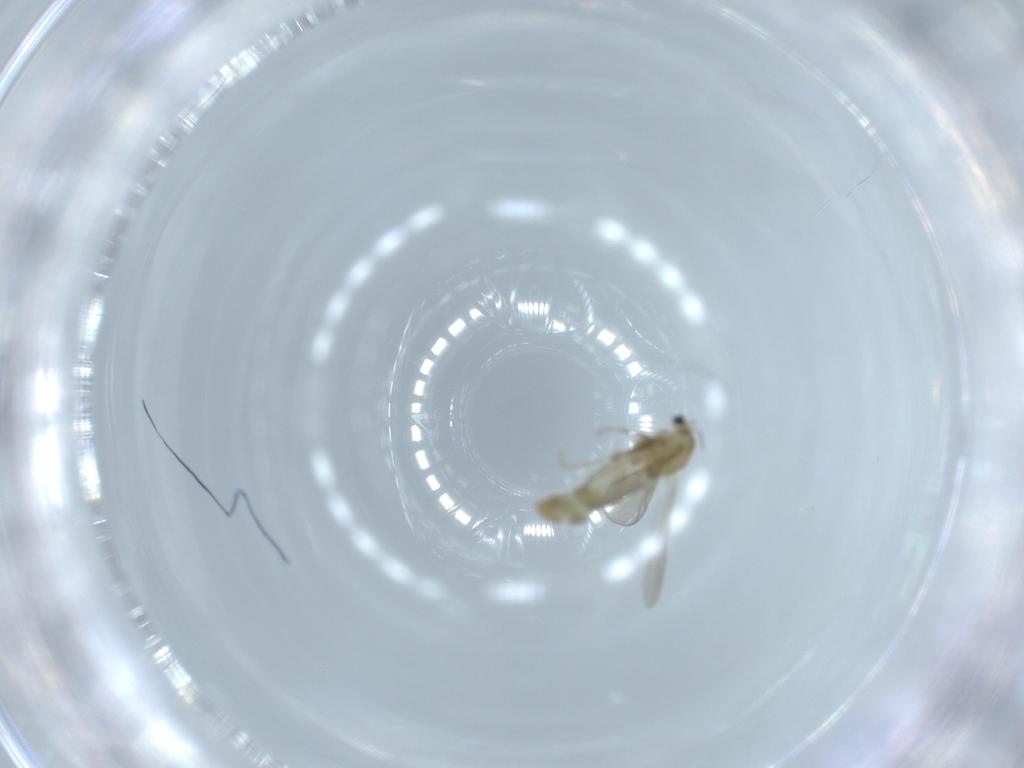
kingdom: Animalia
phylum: Arthropoda
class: Insecta
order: Diptera
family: Chironomidae
